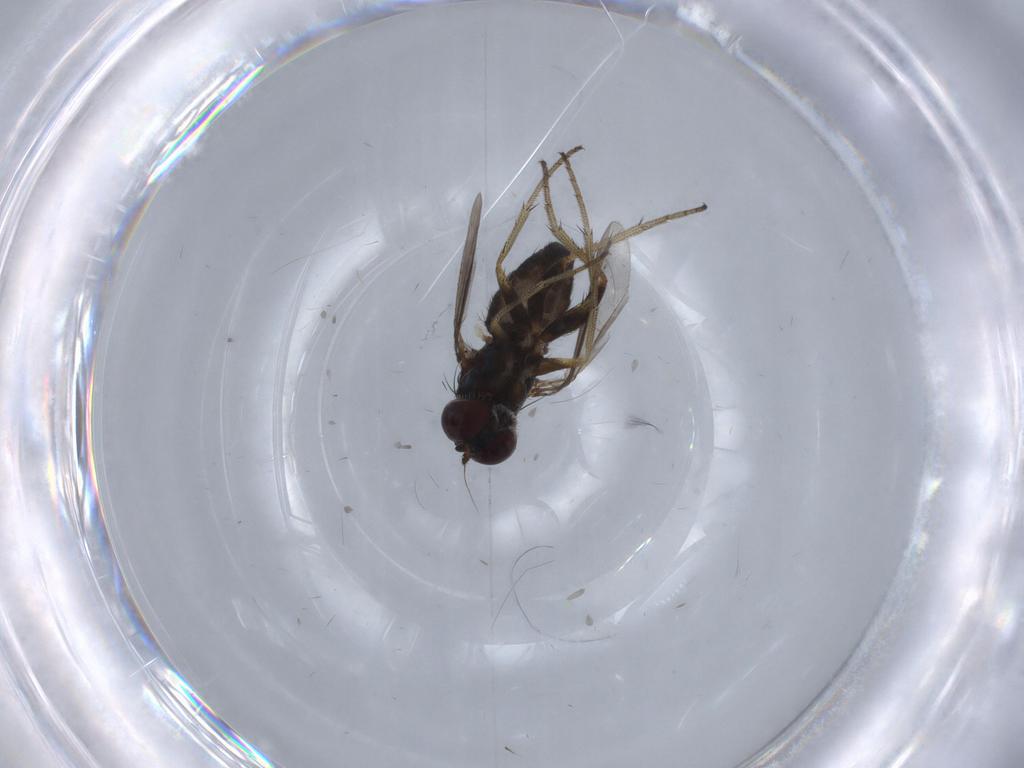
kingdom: Animalia
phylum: Arthropoda
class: Insecta
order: Diptera
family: Dolichopodidae
